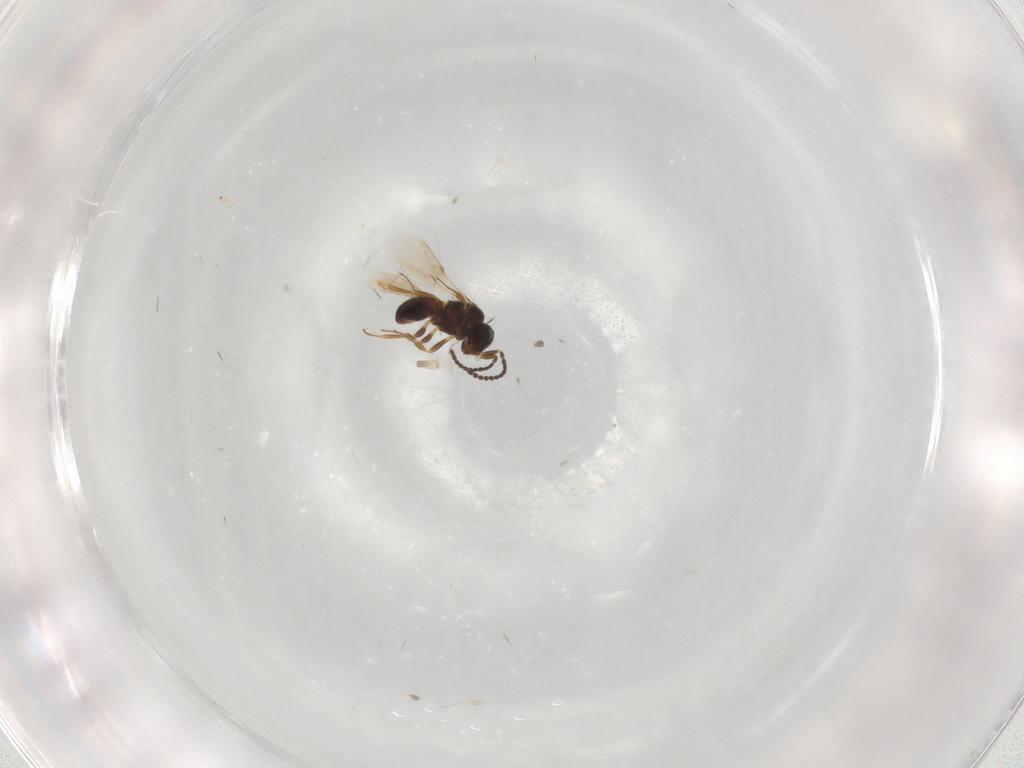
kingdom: Animalia
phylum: Arthropoda
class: Insecta
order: Hymenoptera
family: Scelionidae
